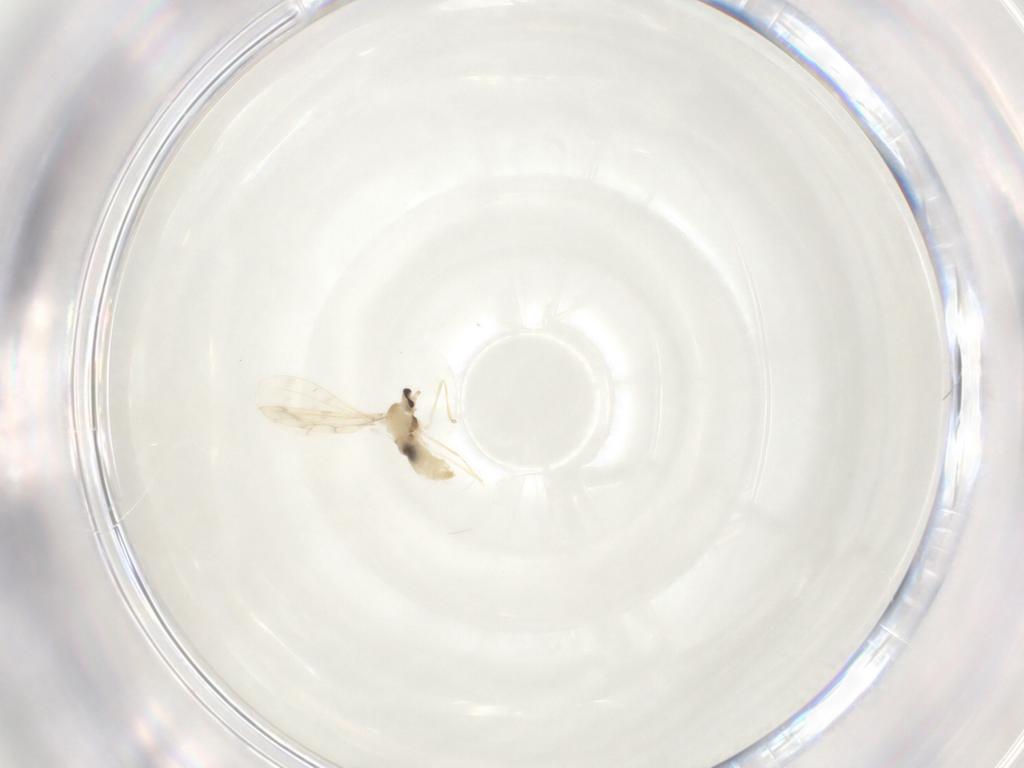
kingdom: Animalia
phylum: Arthropoda
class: Insecta
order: Diptera
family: Cecidomyiidae
